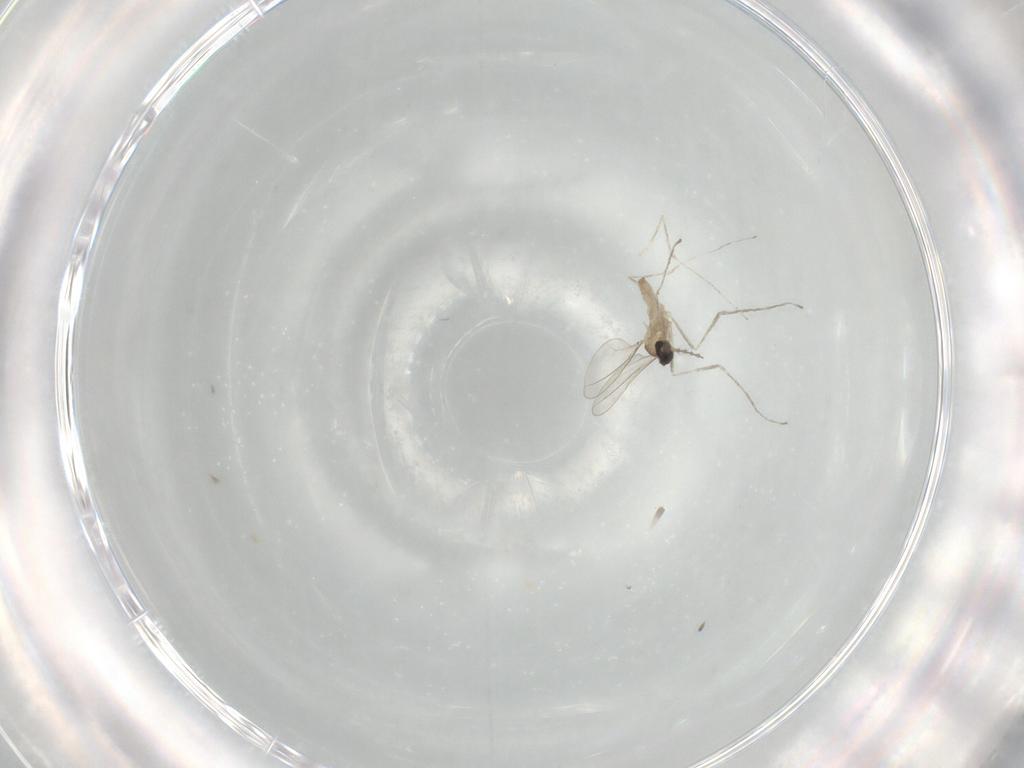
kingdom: Animalia
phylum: Arthropoda
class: Insecta
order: Diptera
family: Cecidomyiidae
